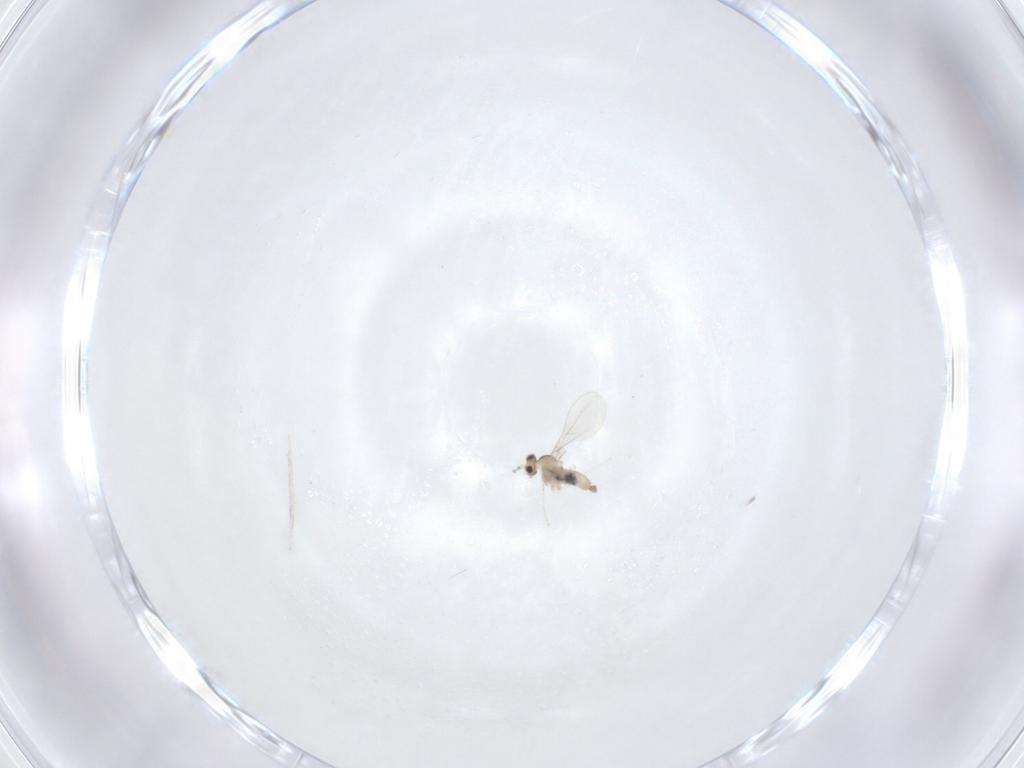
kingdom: Animalia
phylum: Arthropoda
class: Insecta
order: Diptera
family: Cecidomyiidae
